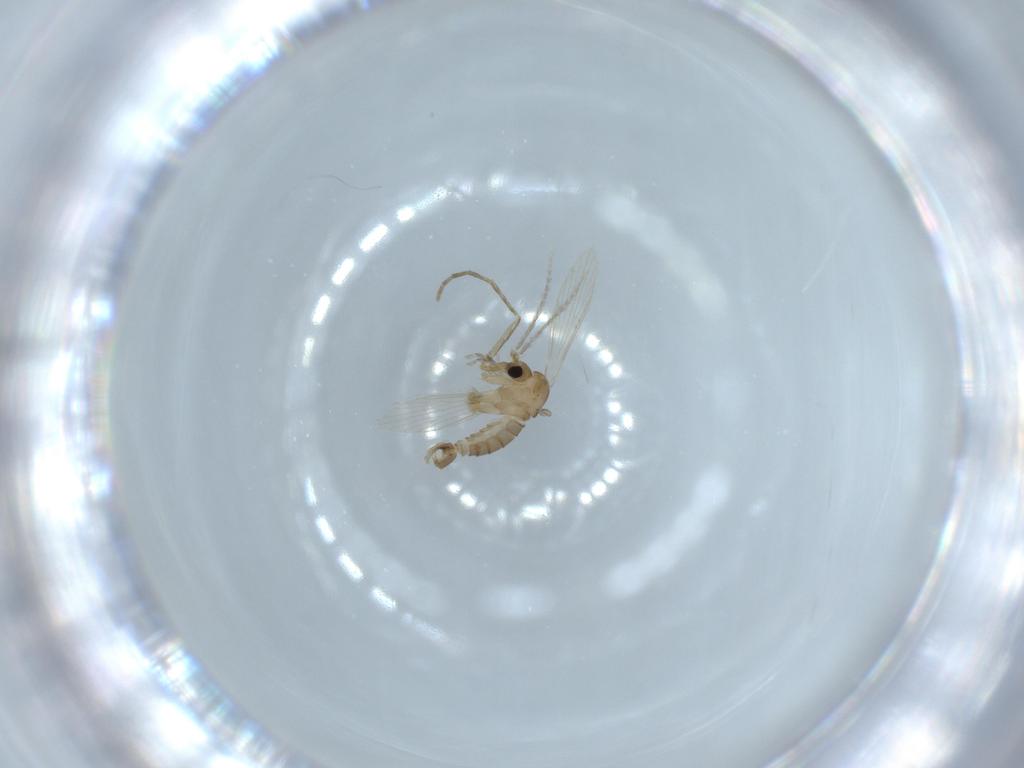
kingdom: Animalia
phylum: Arthropoda
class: Insecta
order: Diptera
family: Psychodidae
